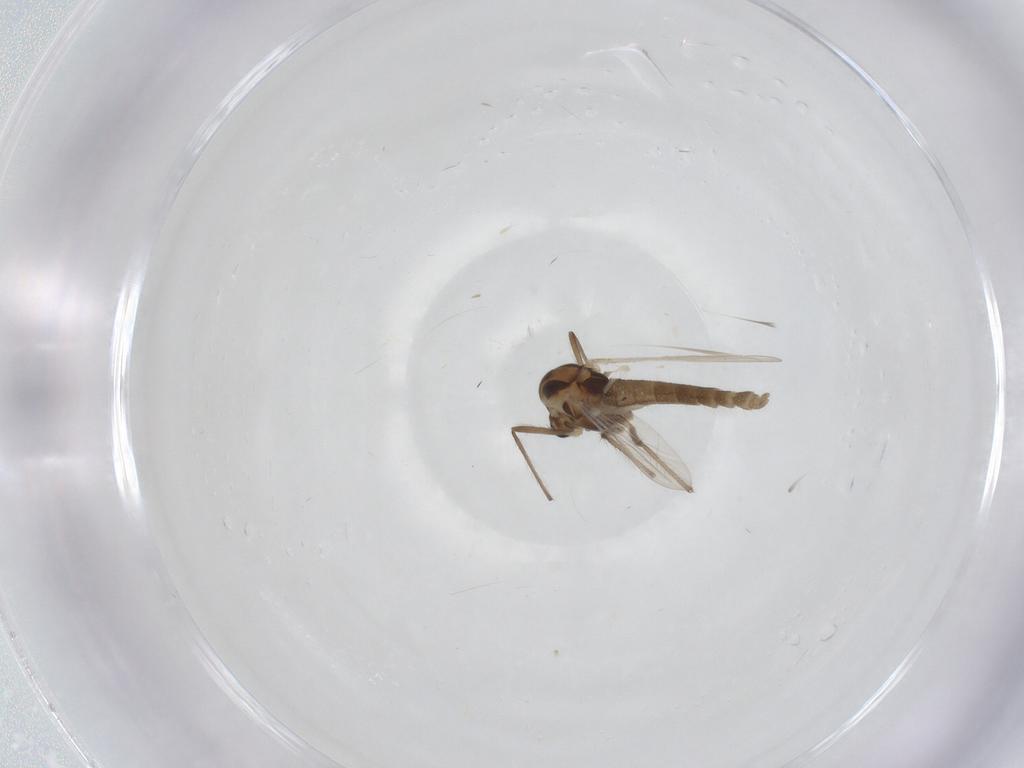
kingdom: Animalia
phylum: Arthropoda
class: Insecta
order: Diptera
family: Chironomidae
